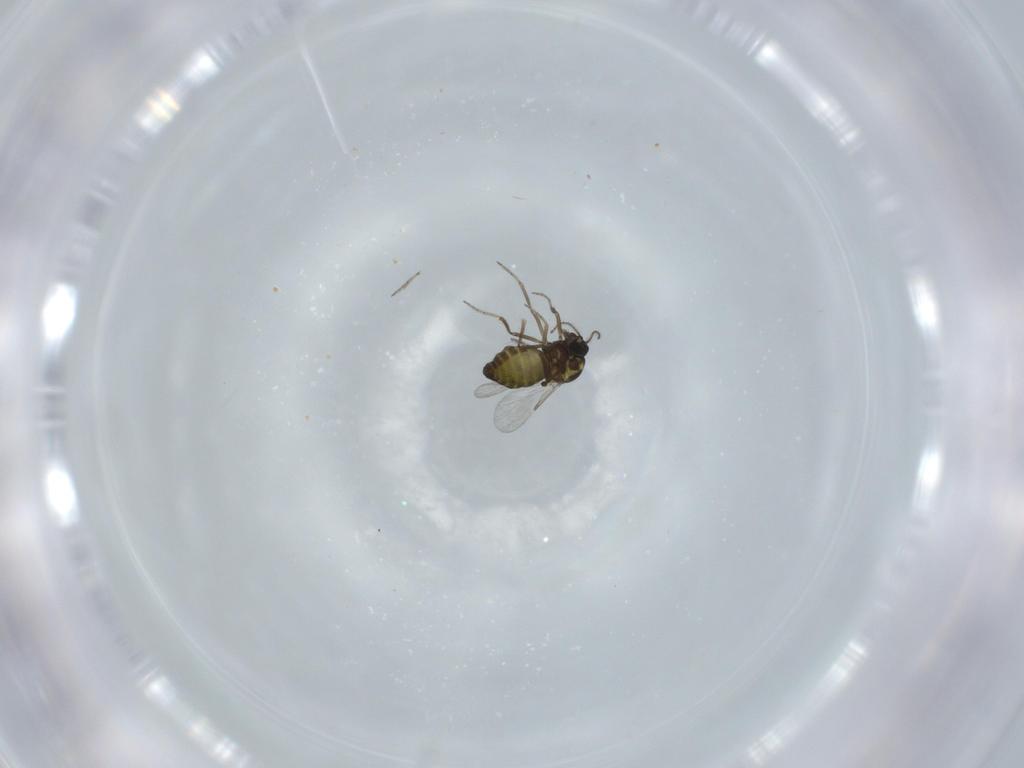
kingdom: Animalia
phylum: Arthropoda
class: Insecta
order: Diptera
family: Ceratopogonidae
